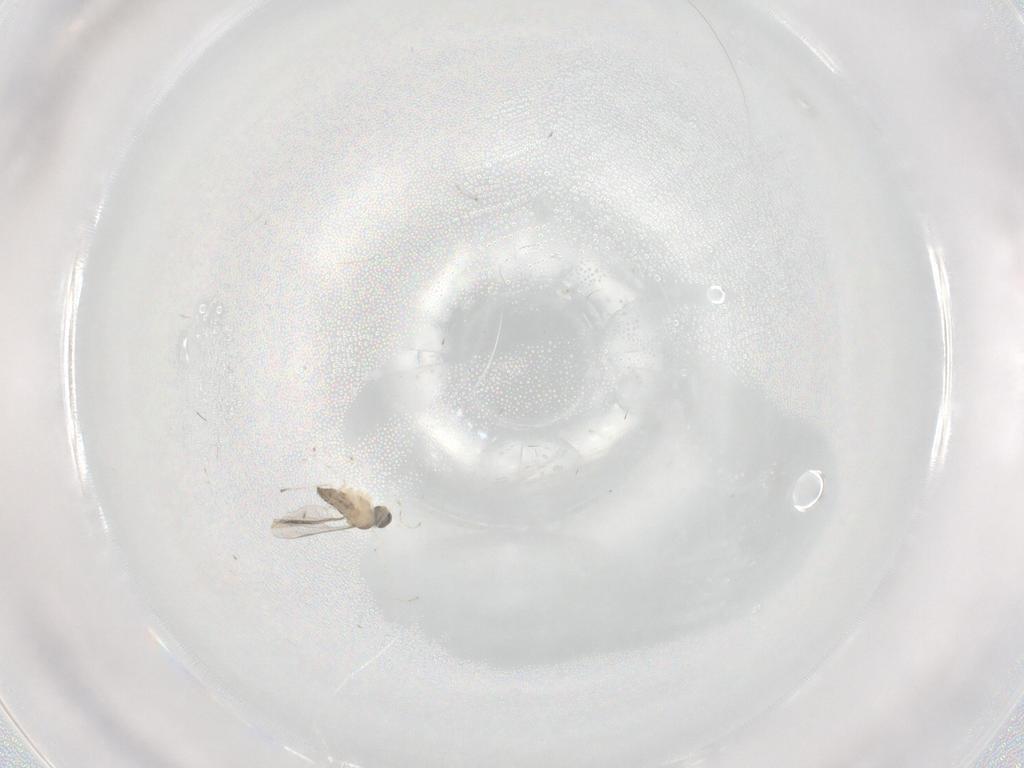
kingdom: Animalia
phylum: Arthropoda
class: Insecta
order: Diptera
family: Cecidomyiidae
